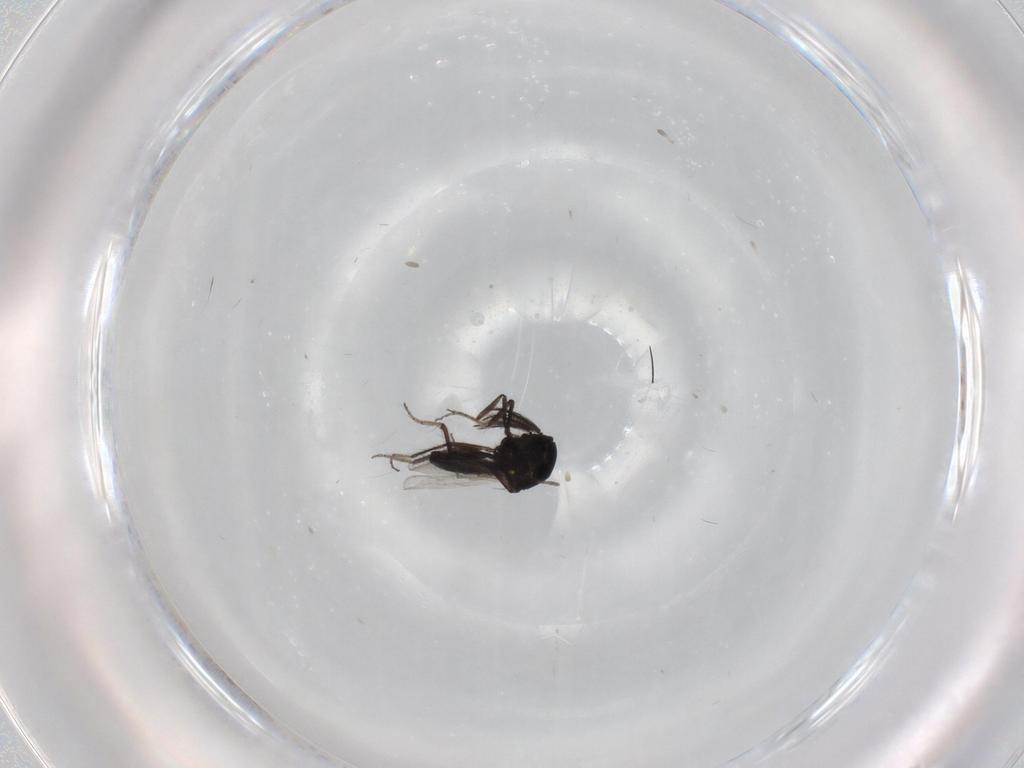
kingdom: Animalia
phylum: Arthropoda
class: Insecta
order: Diptera
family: Ceratopogonidae
